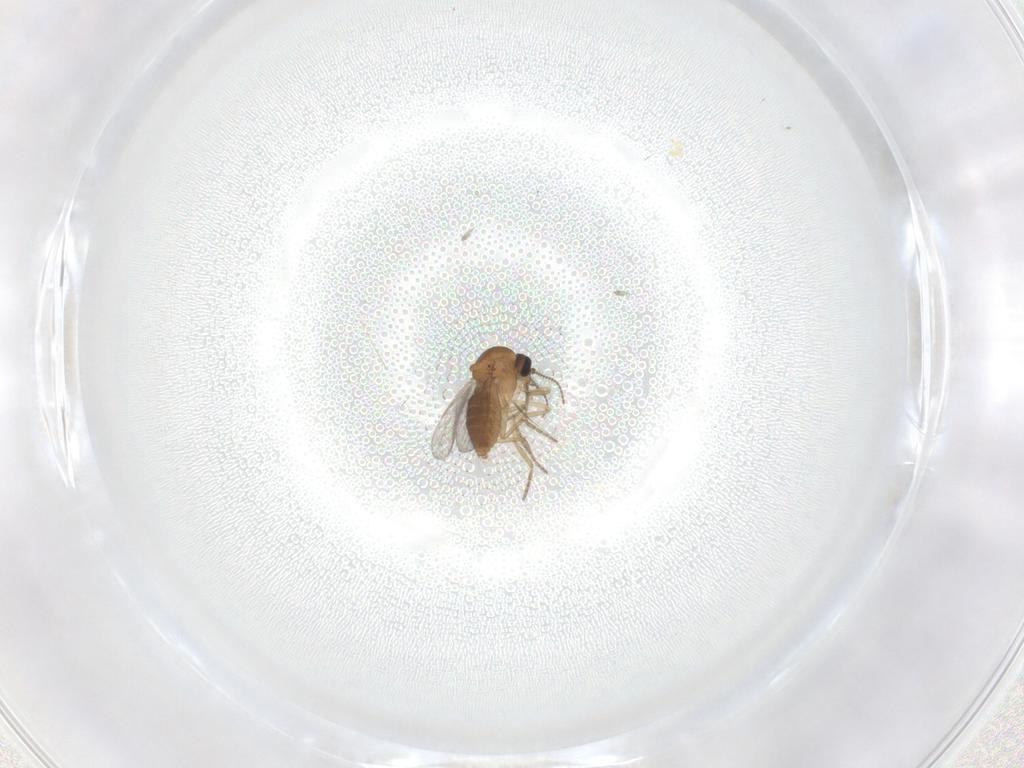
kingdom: Animalia
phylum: Arthropoda
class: Insecta
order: Diptera
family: Ceratopogonidae
